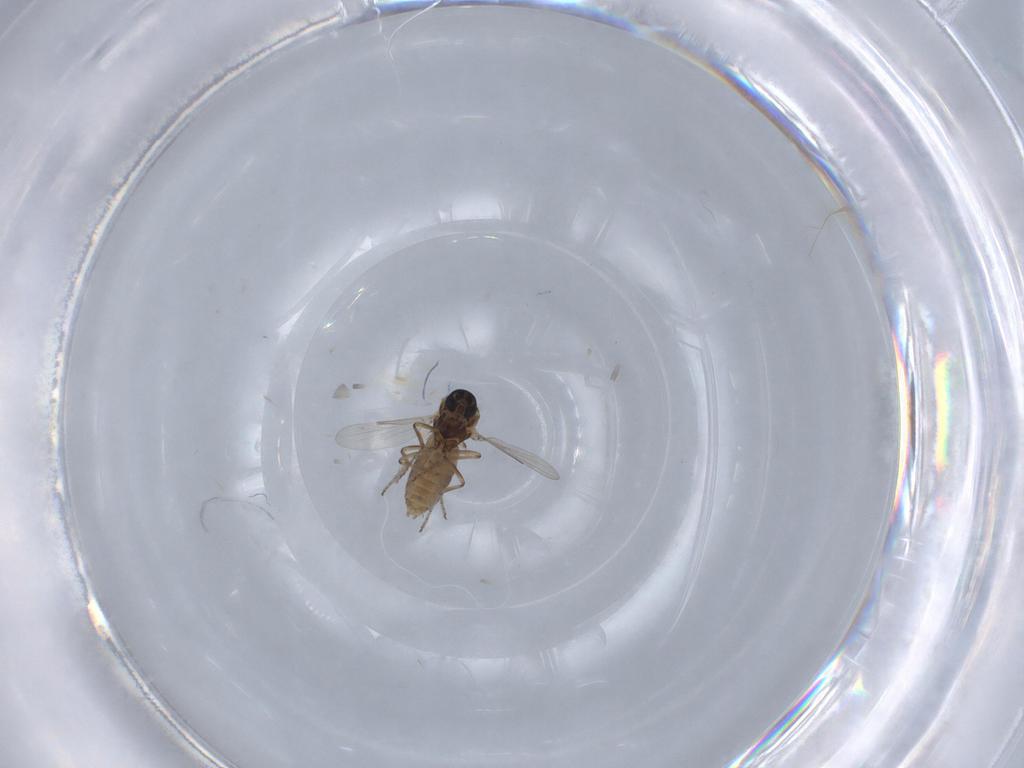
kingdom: Animalia
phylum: Arthropoda
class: Insecta
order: Diptera
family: Ceratopogonidae
